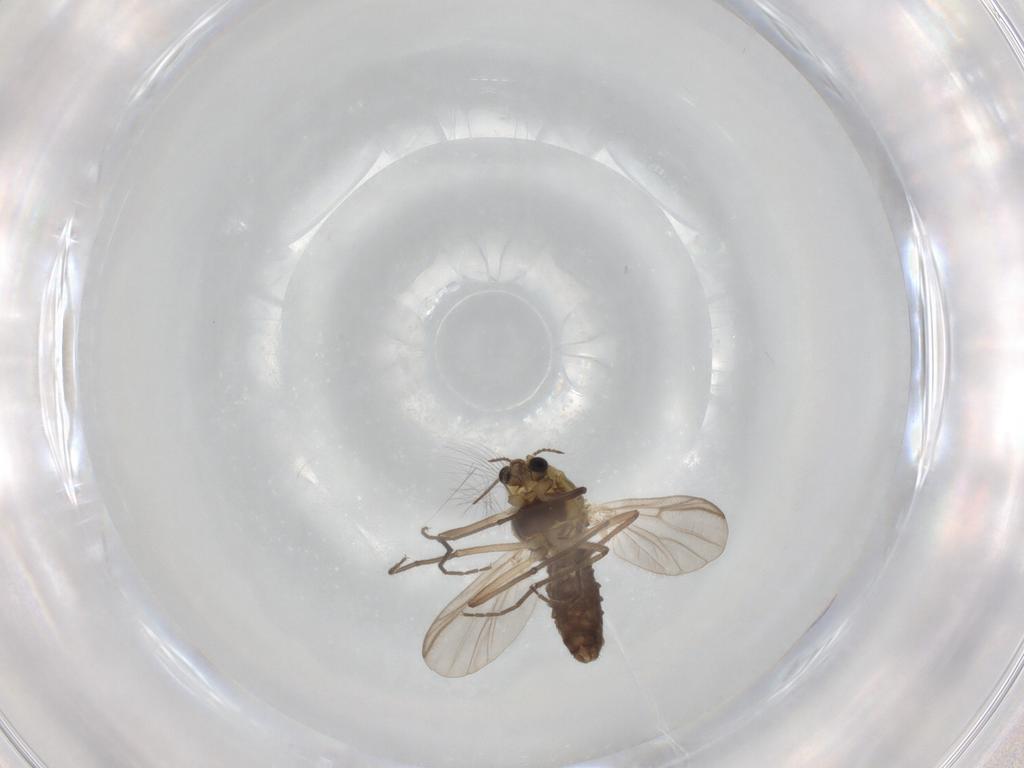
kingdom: Animalia
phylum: Arthropoda
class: Insecta
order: Diptera
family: Chironomidae
